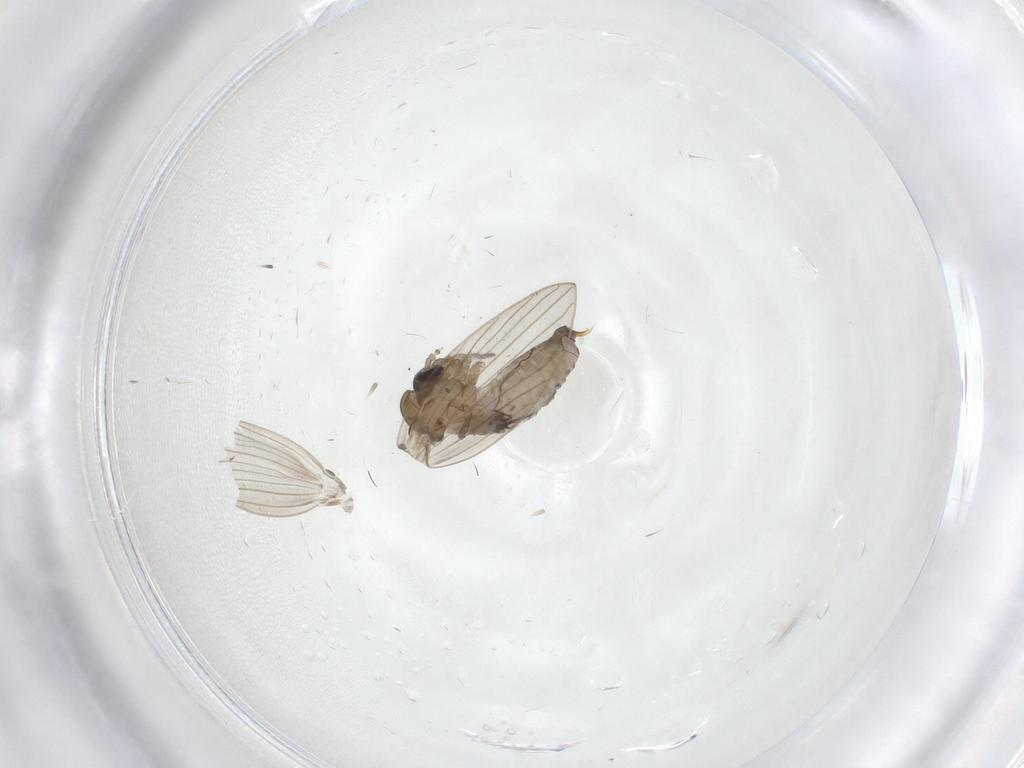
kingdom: Animalia
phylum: Arthropoda
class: Insecta
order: Diptera
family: Psychodidae
